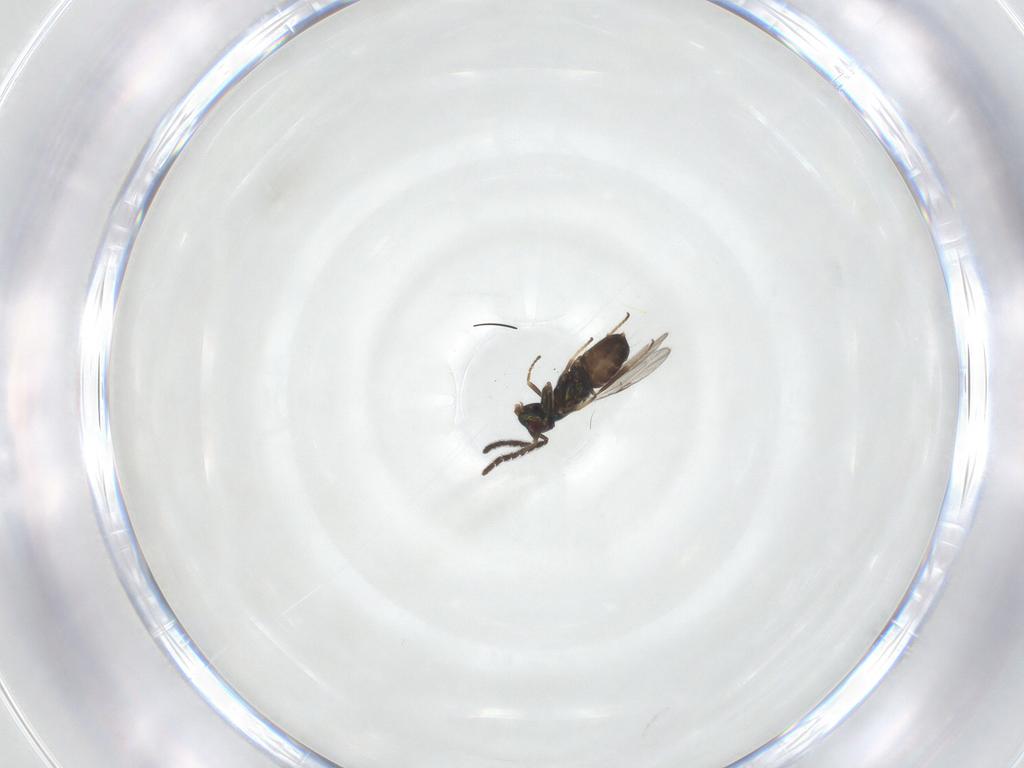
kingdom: Animalia
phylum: Arthropoda
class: Insecta
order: Hymenoptera
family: Encyrtidae
